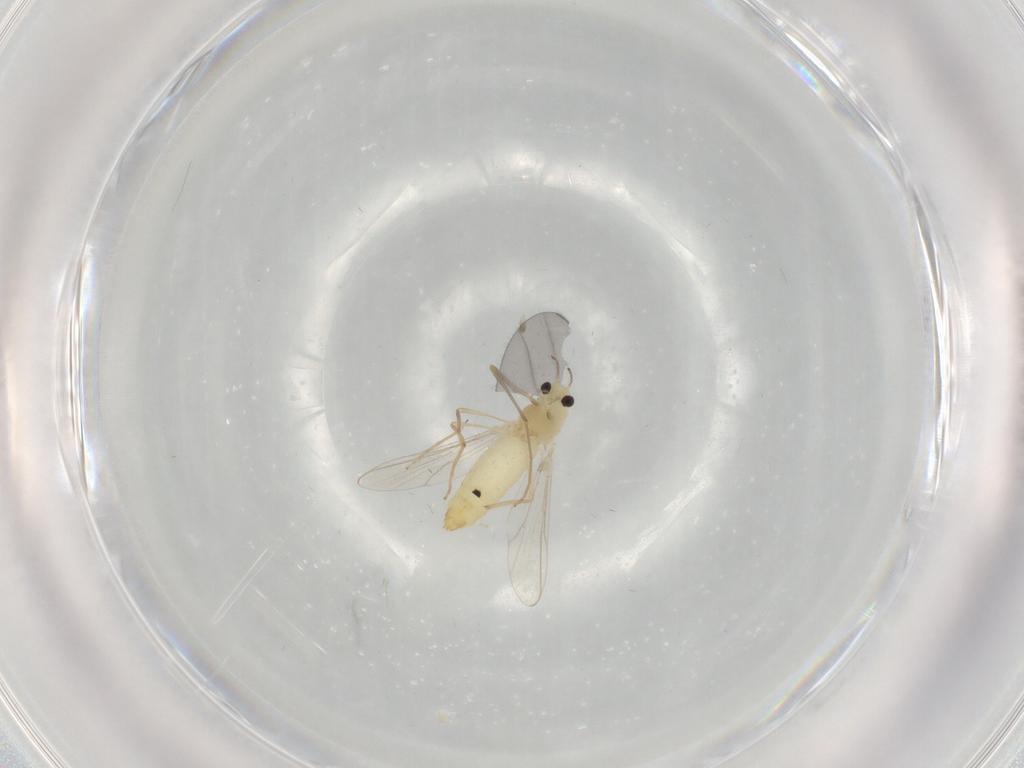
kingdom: Animalia
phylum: Arthropoda
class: Insecta
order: Diptera
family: Chironomidae
